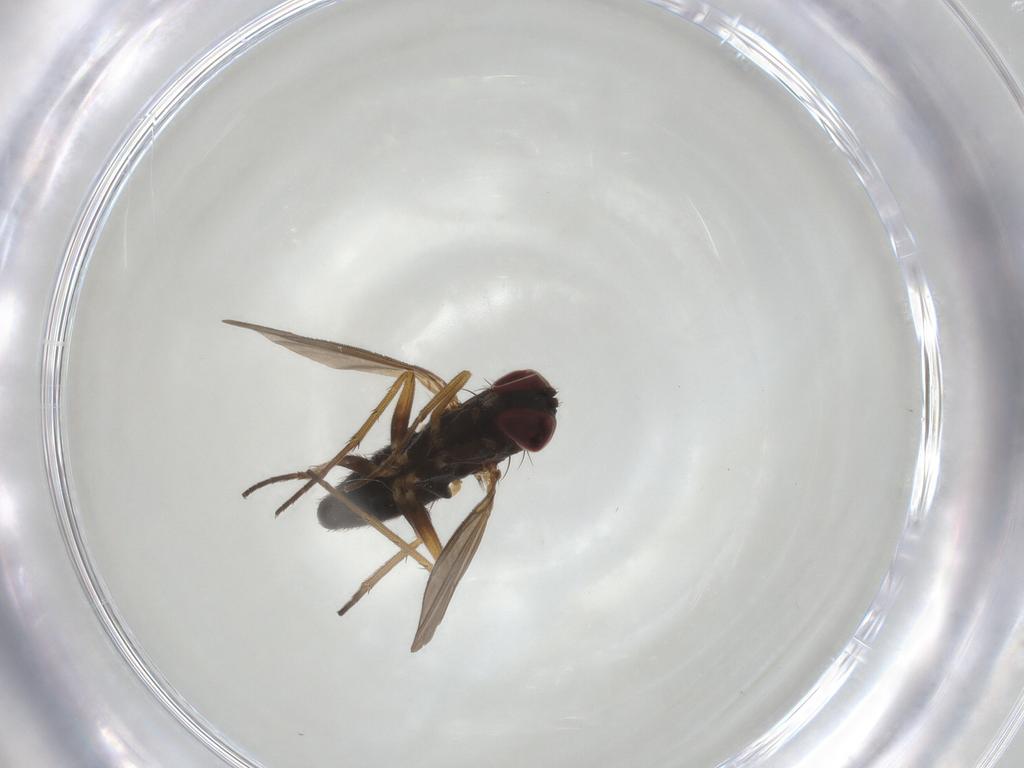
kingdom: Animalia
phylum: Arthropoda
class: Insecta
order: Diptera
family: Dolichopodidae
